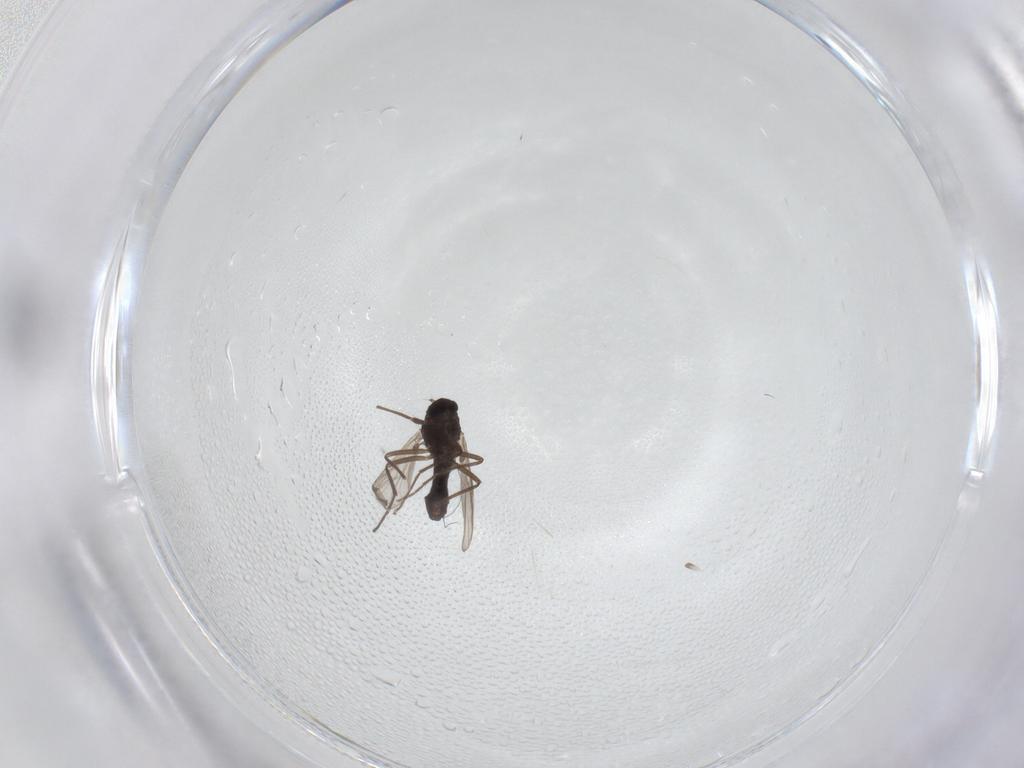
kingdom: Animalia
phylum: Arthropoda
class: Insecta
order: Diptera
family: Chironomidae
